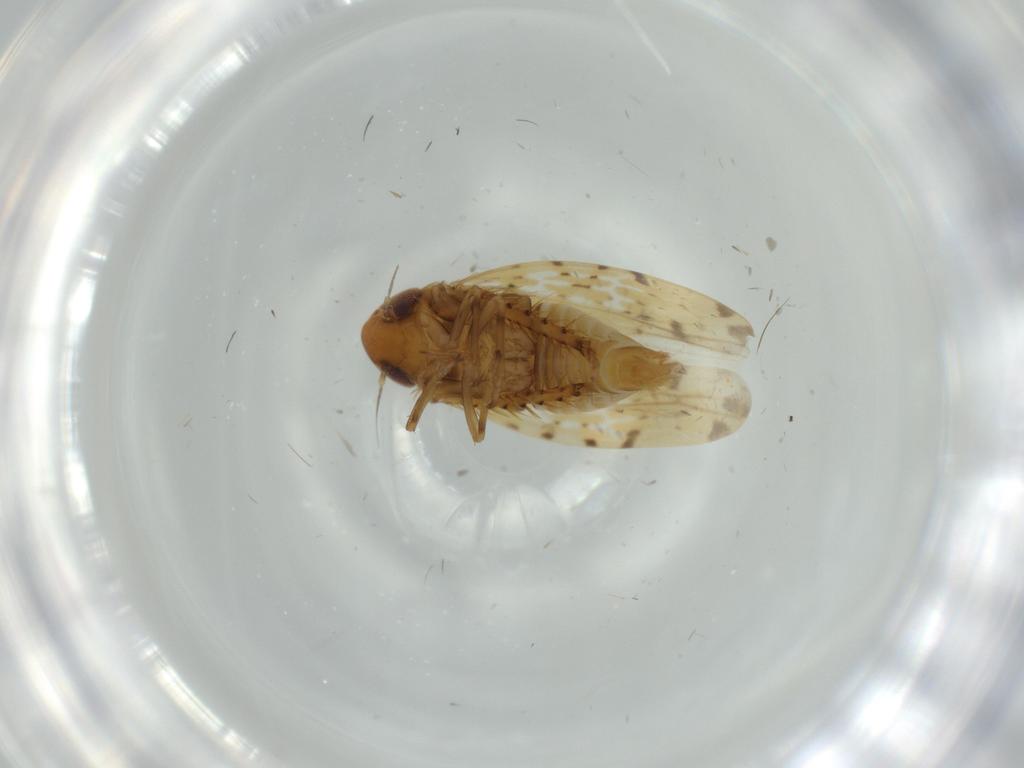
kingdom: Animalia
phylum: Arthropoda
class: Insecta
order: Hemiptera
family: Cicadellidae
